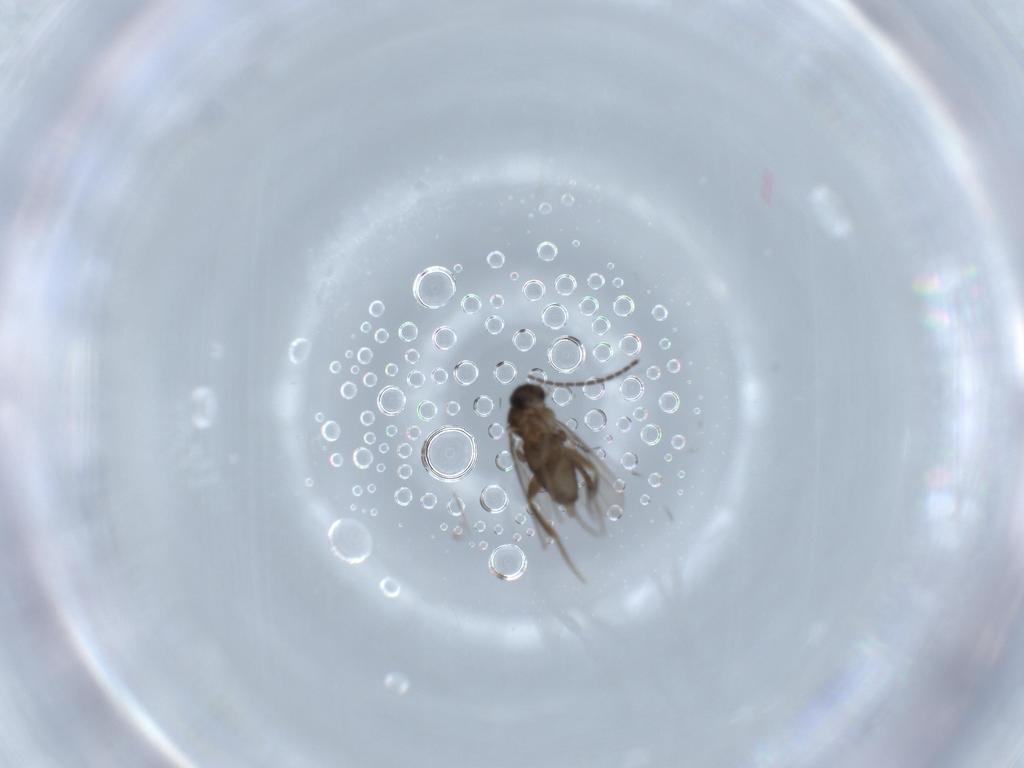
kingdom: Animalia
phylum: Arthropoda
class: Insecta
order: Diptera
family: Phoridae
